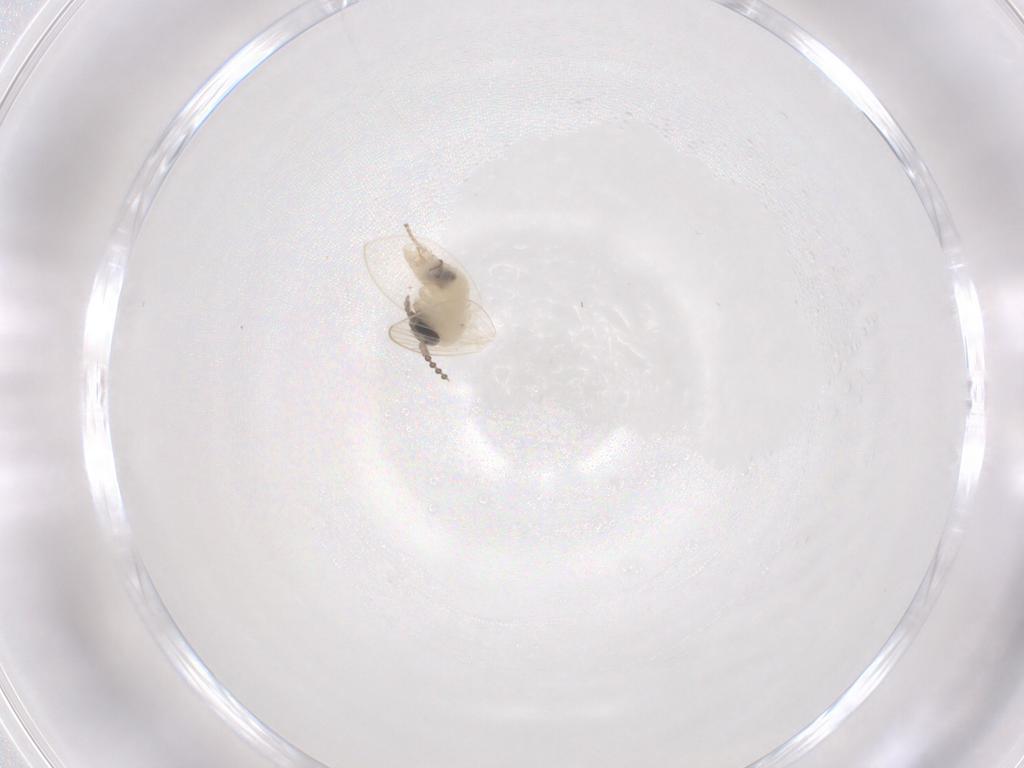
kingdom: Animalia
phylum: Arthropoda
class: Insecta
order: Diptera
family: Psychodidae
